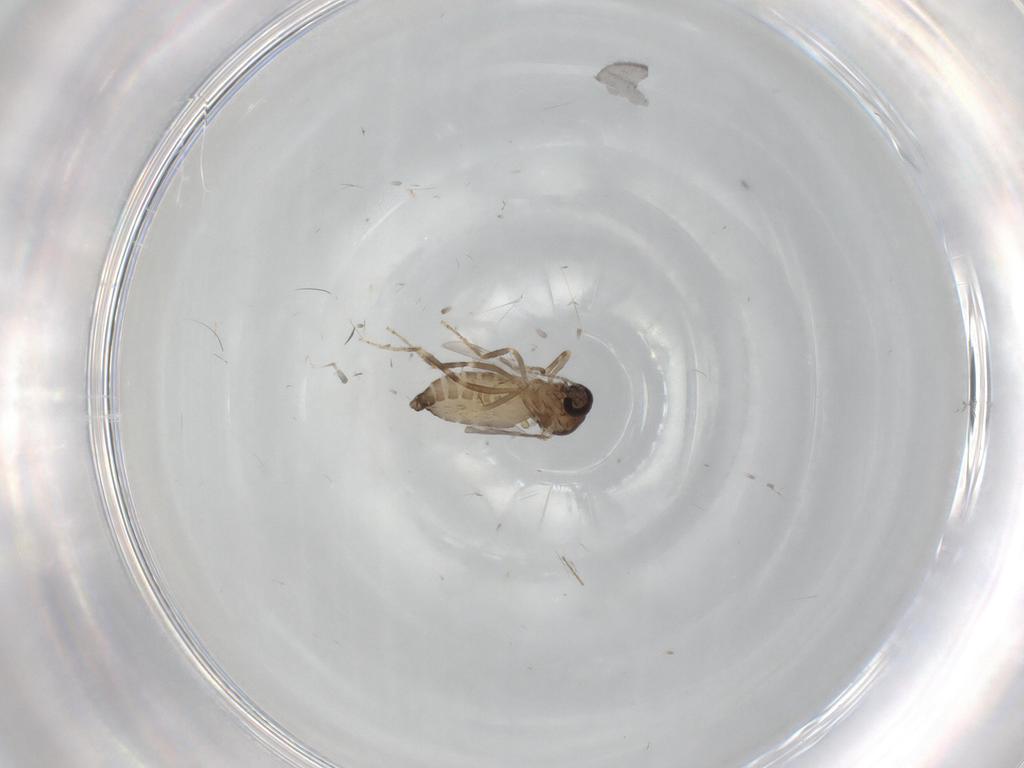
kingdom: Animalia
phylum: Arthropoda
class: Insecta
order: Diptera
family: Ceratopogonidae
